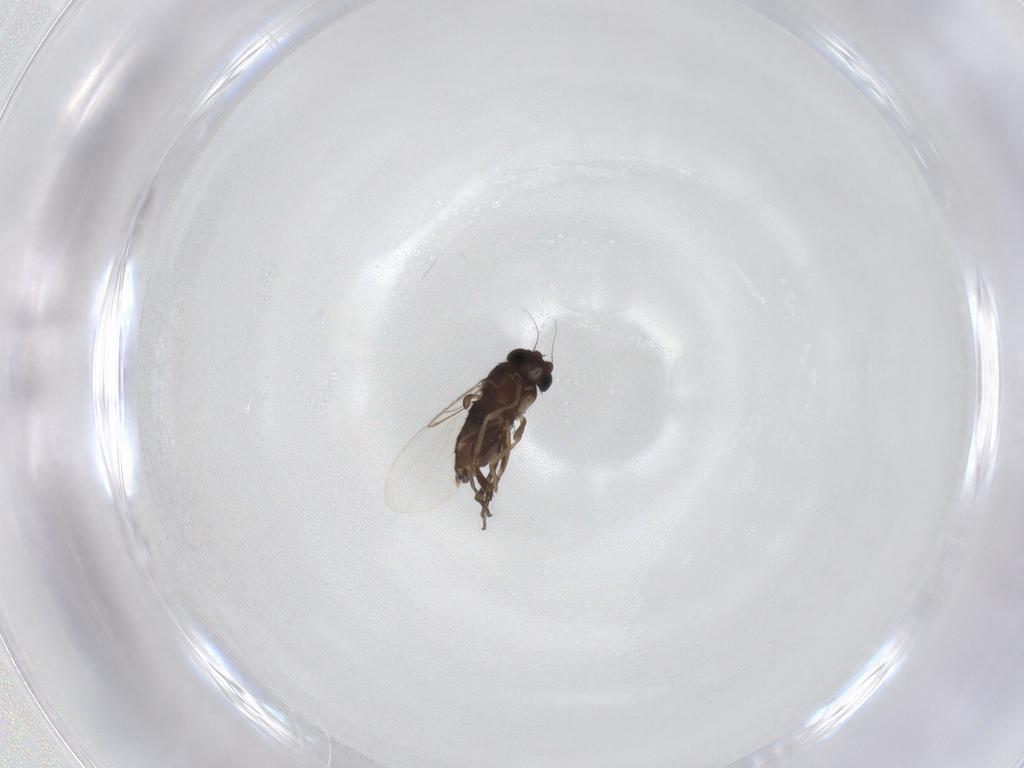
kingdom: Animalia
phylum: Arthropoda
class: Insecta
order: Diptera
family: Phoridae
